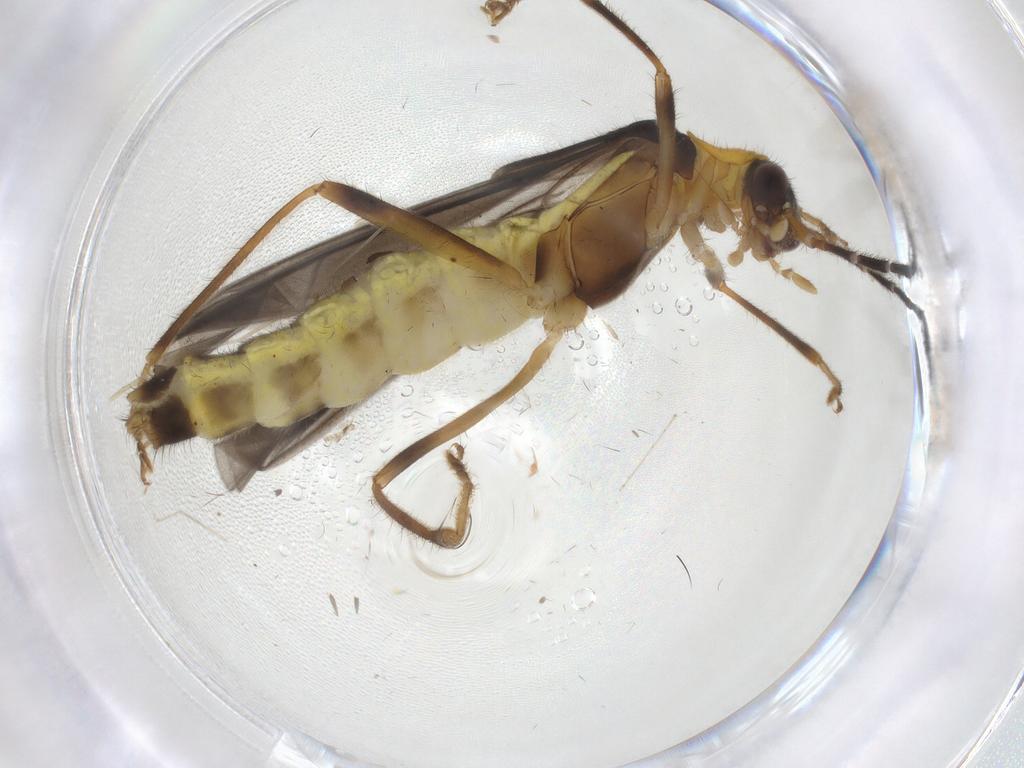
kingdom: Animalia
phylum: Arthropoda
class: Insecta
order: Coleoptera
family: Cantharidae
